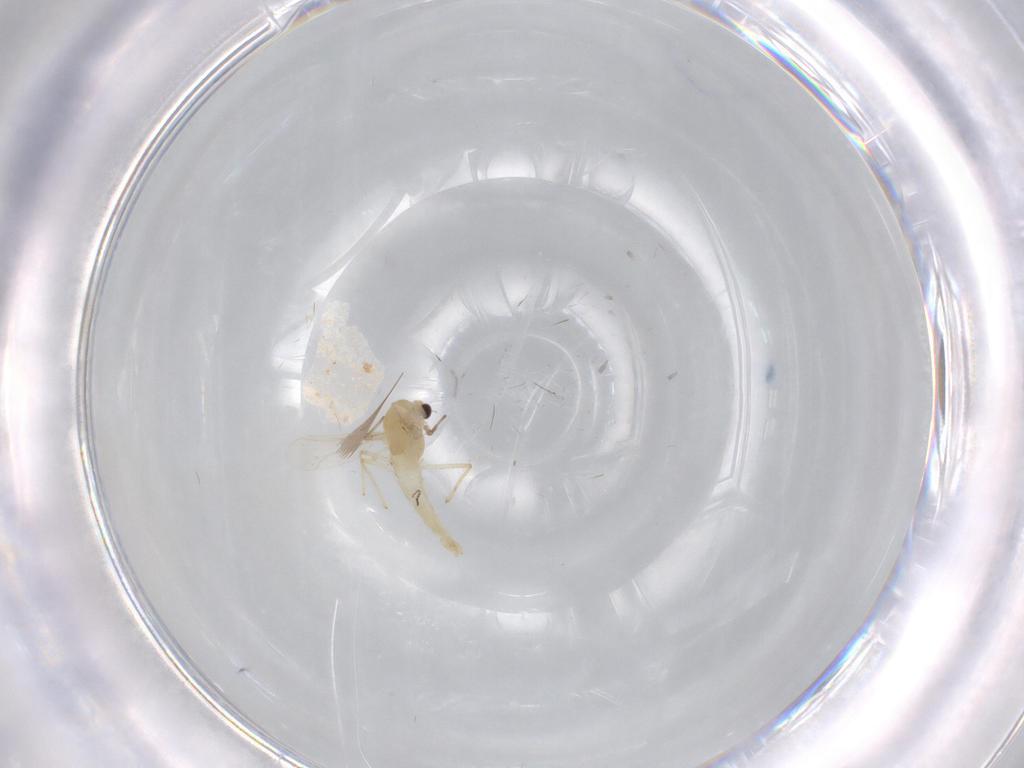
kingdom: Animalia
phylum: Arthropoda
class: Insecta
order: Diptera
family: Chironomidae
